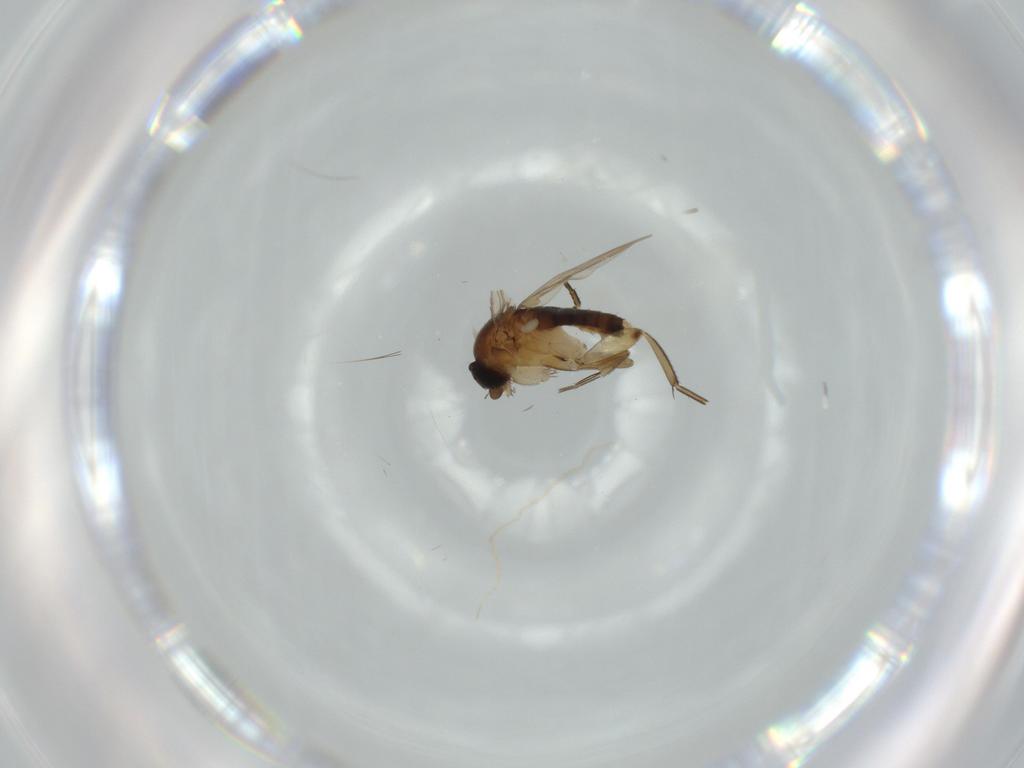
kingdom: Animalia
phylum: Arthropoda
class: Insecta
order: Diptera
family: Phoridae
